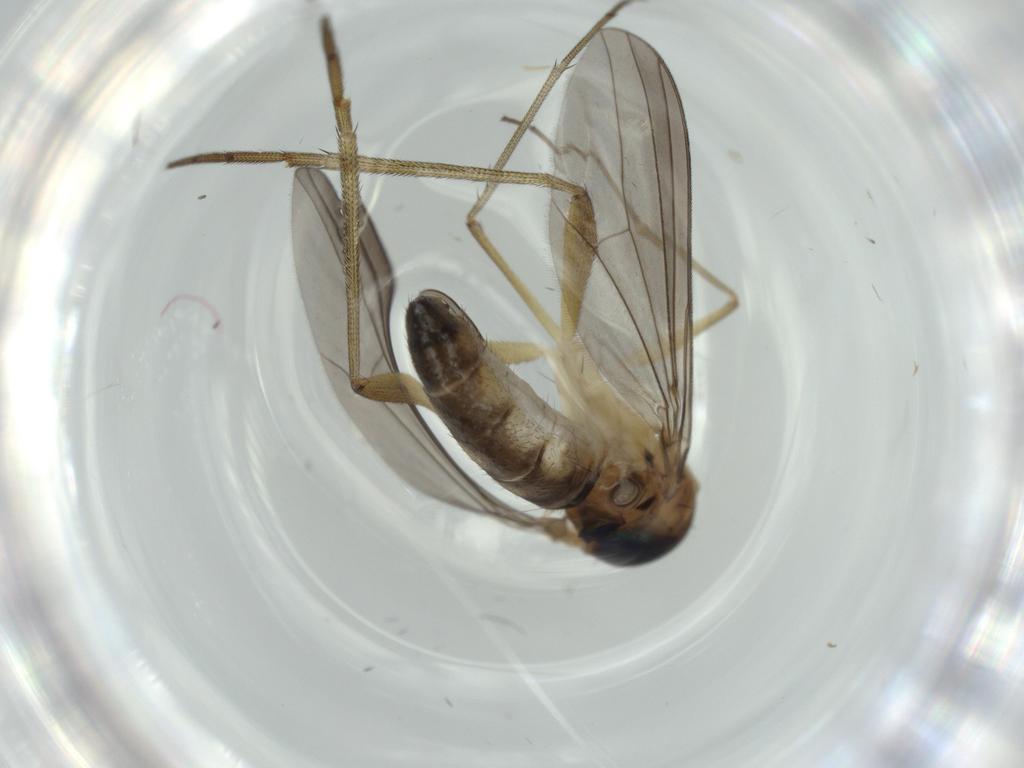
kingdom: Animalia
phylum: Arthropoda
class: Insecta
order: Diptera
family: Dolichopodidae
